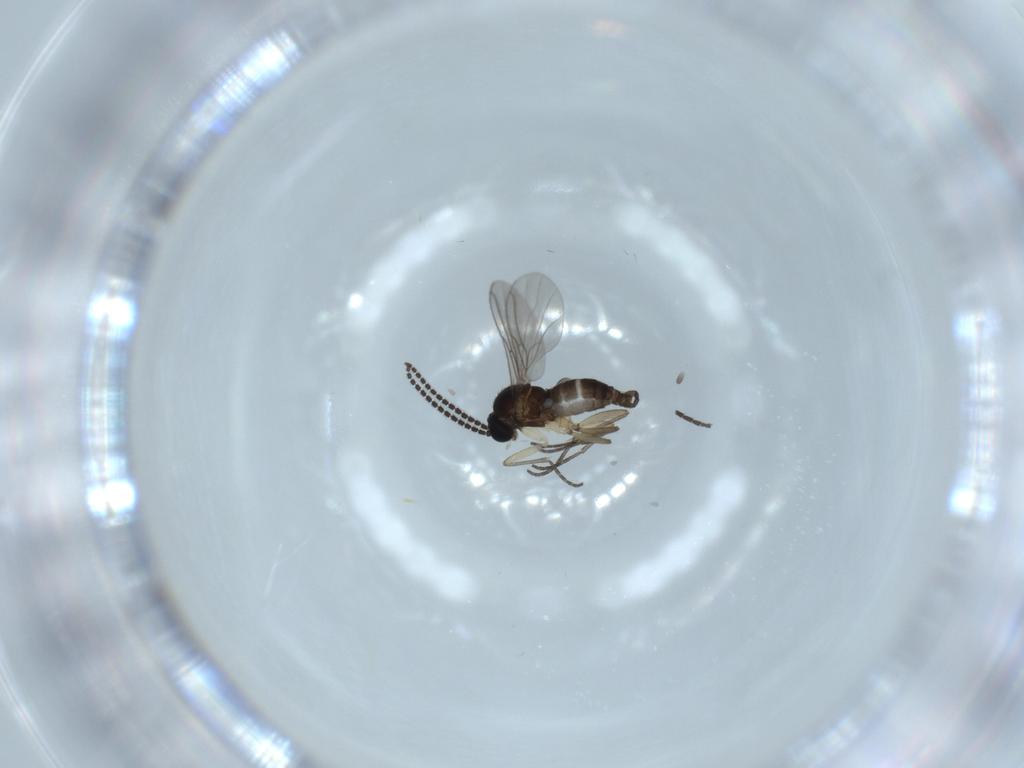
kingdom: Animalia
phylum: Arthropoda
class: Insecta
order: Diptera
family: Sciaridae
